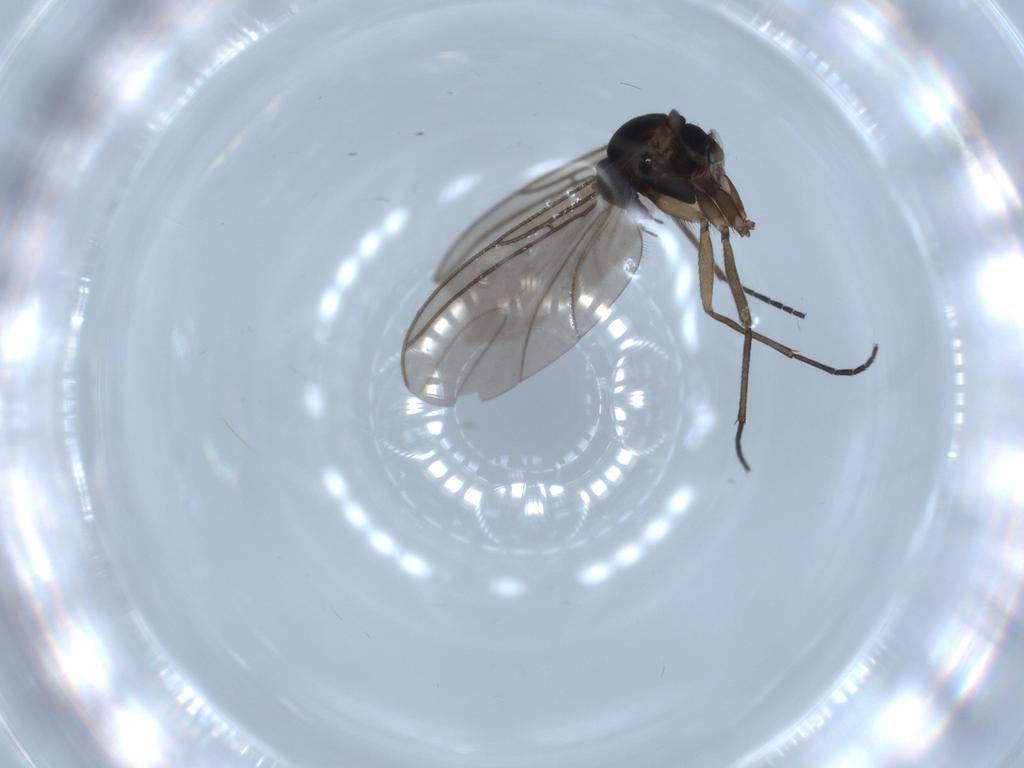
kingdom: Animalia
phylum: Arthropoda
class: Insecta
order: Diptera
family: Sciaridae
